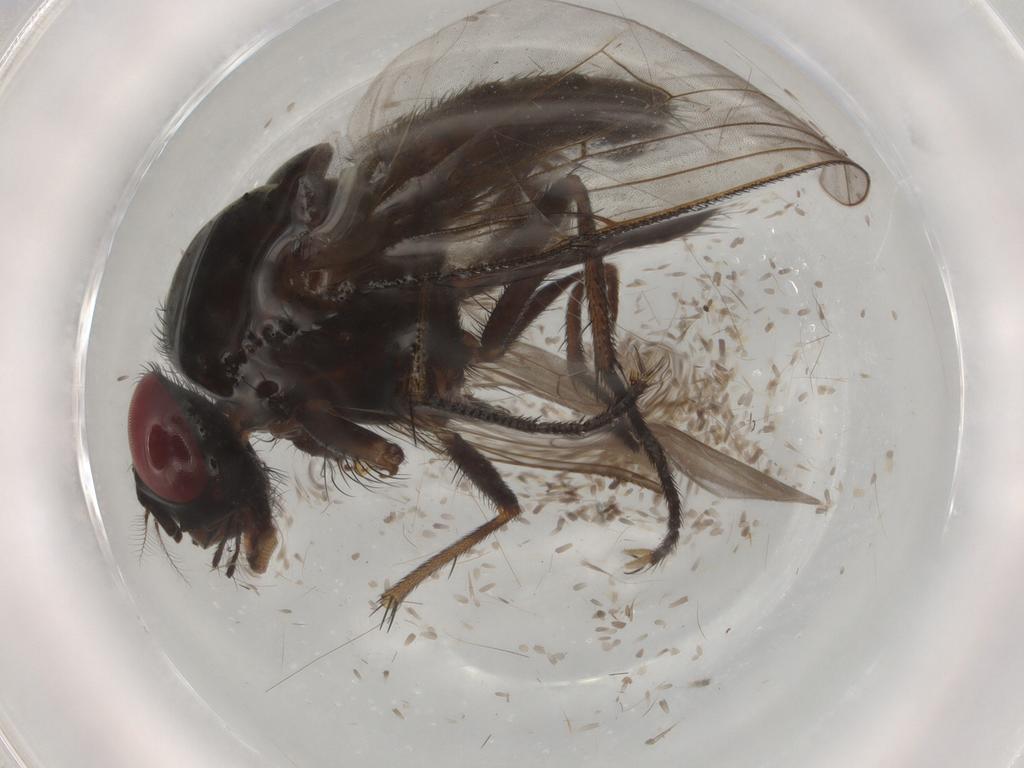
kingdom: Animalia
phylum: Arthropoda
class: Insecta
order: Diptera
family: Muscidae
